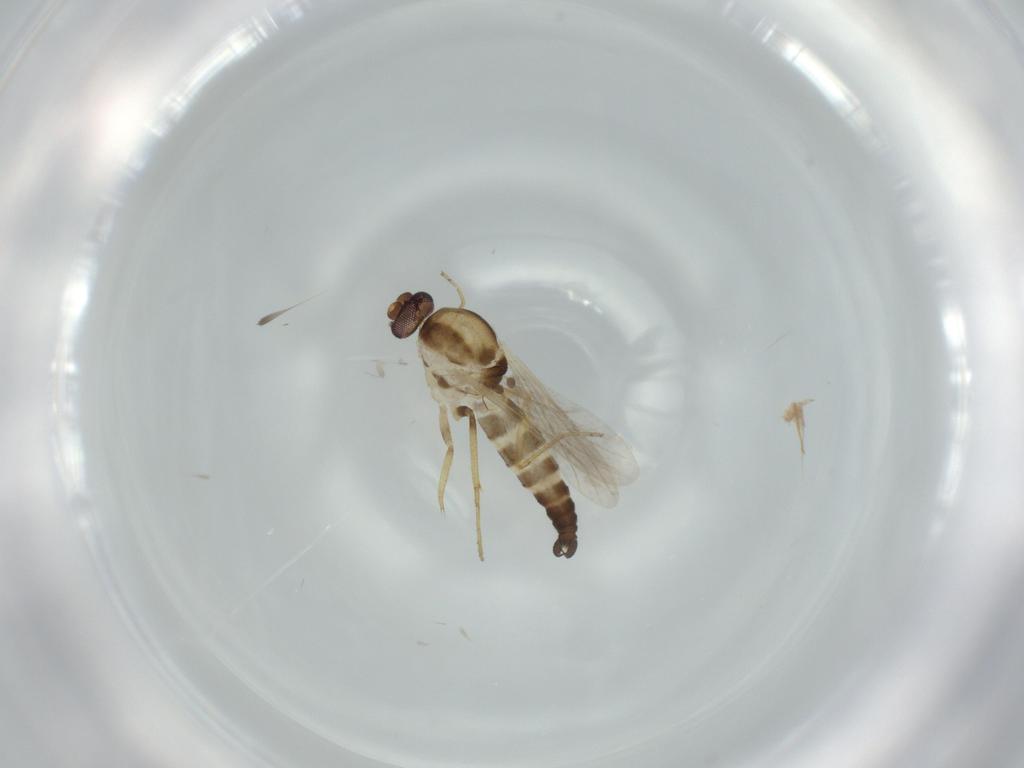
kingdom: Animalia
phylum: Arthropoda
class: Insecta
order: Diptera
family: Ceratopogonidae
